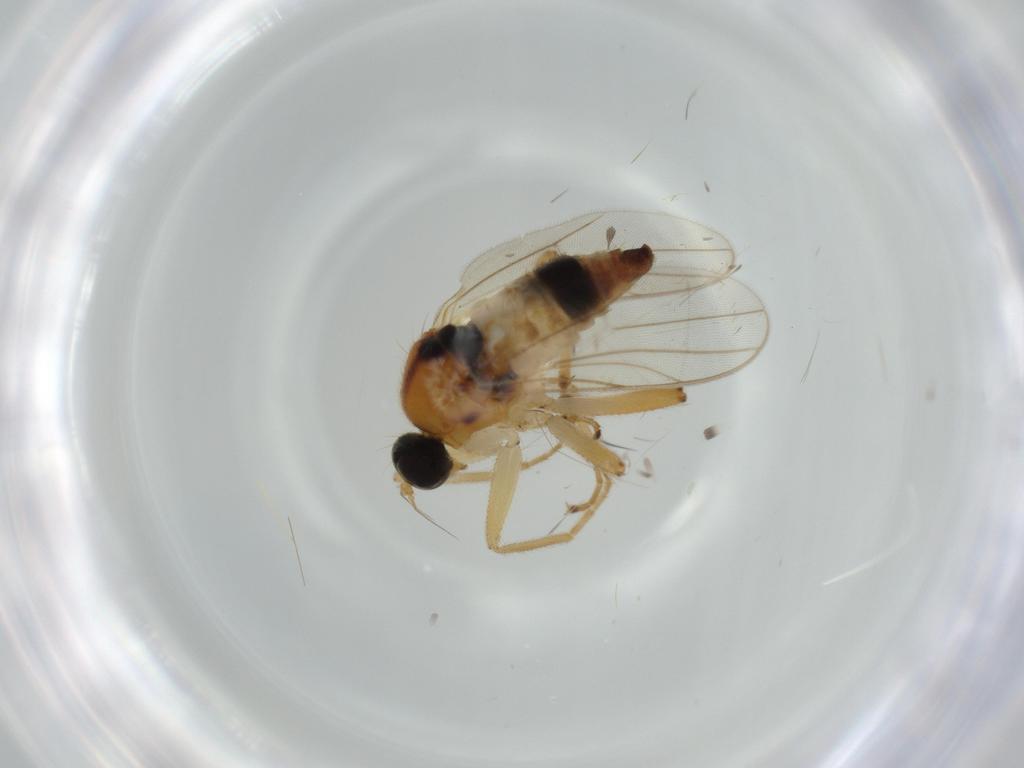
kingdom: Animalia
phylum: Arthropoda
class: Insecta
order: Diptera
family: Hybotidae
